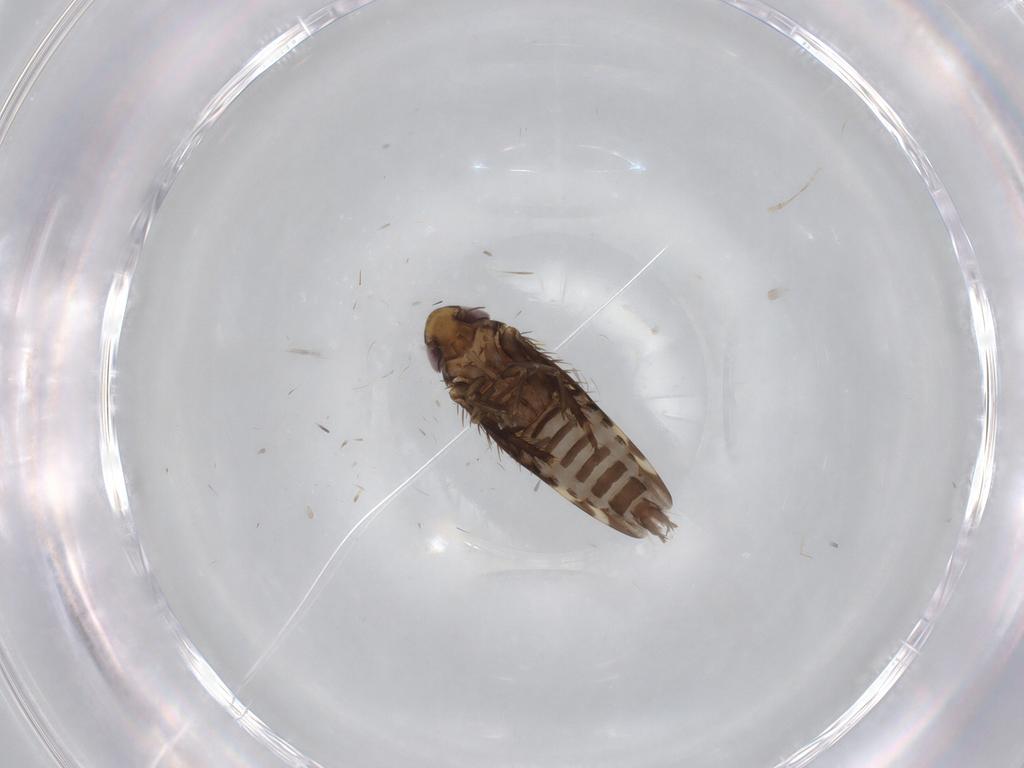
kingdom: Animalia
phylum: Arthropoda
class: Insecta
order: Hemiptera
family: Cicadellidae
